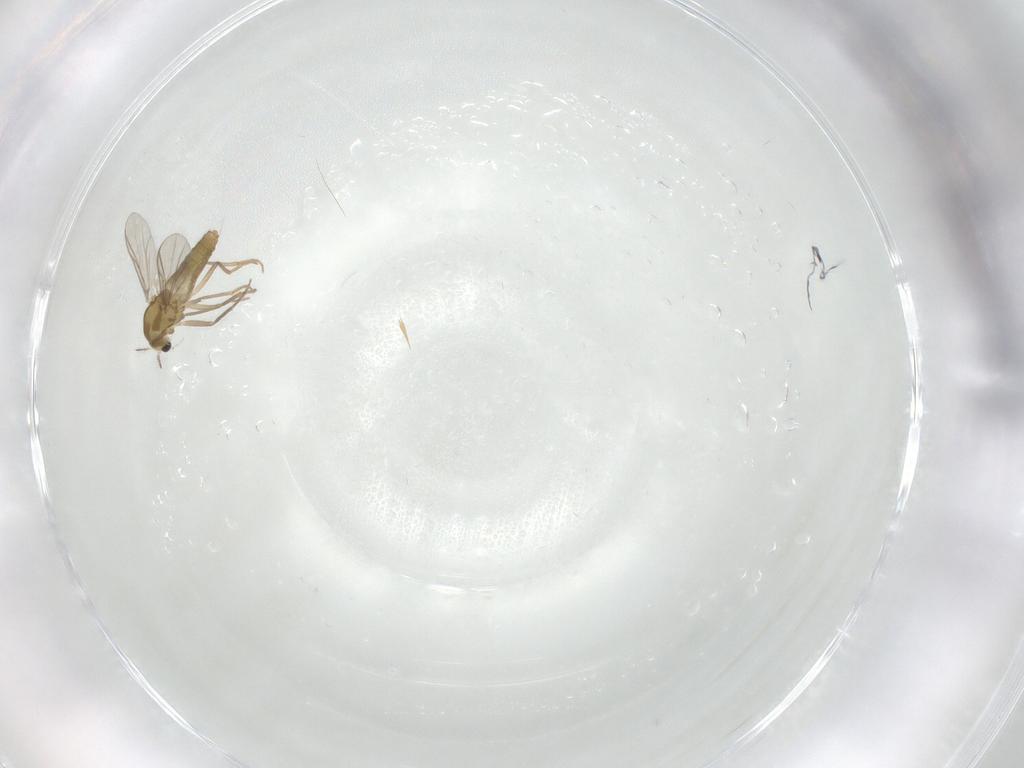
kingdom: Animalia
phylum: Arthropoda
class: Insecta
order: Diptera
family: Chironomidae
